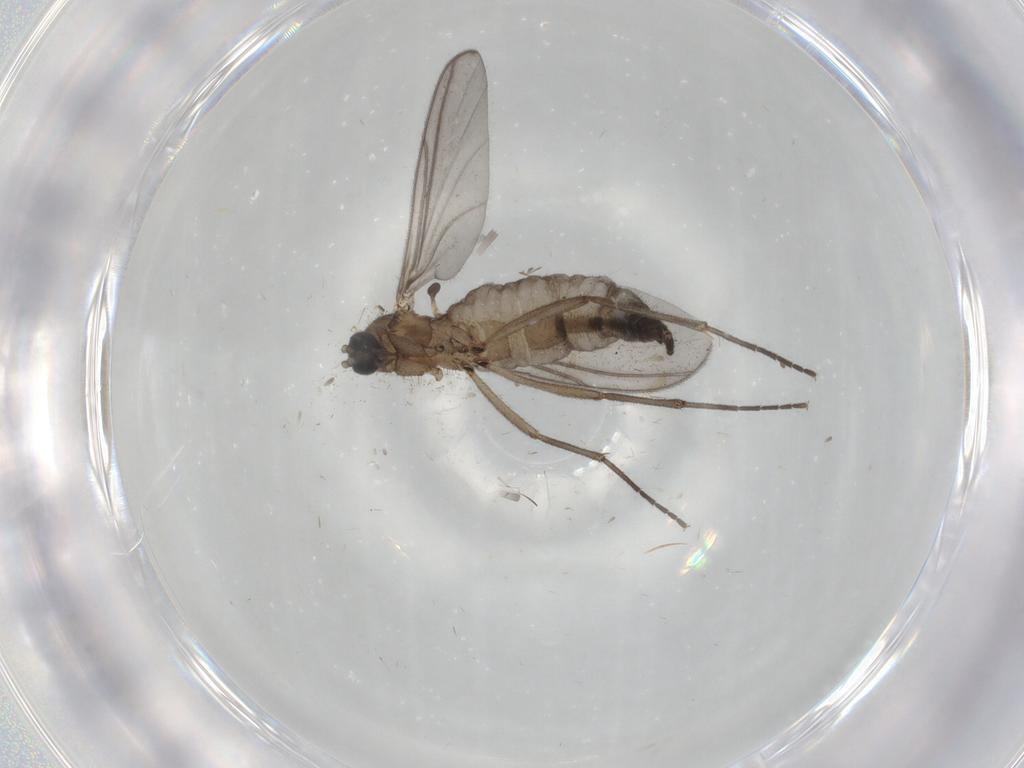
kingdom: Animalia
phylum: Arthropoda
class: Insecta
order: Diptera
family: Sciaridae
